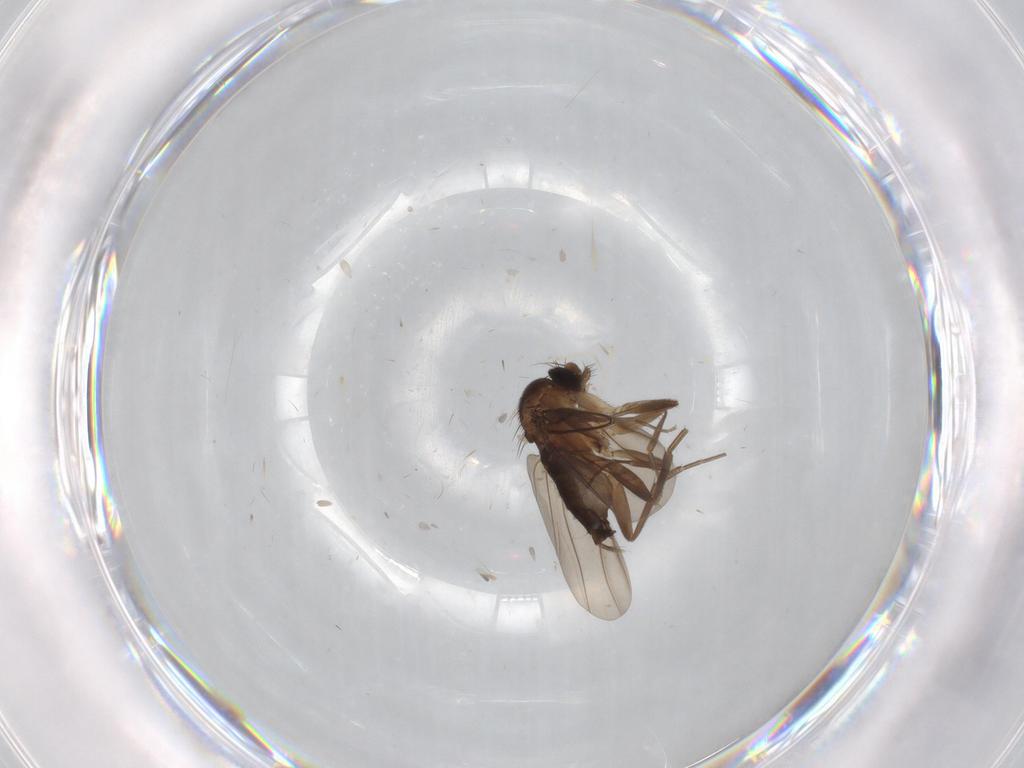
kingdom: Animalia
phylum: Arthropoda
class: Insecta
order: Diptera
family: Phoridae
